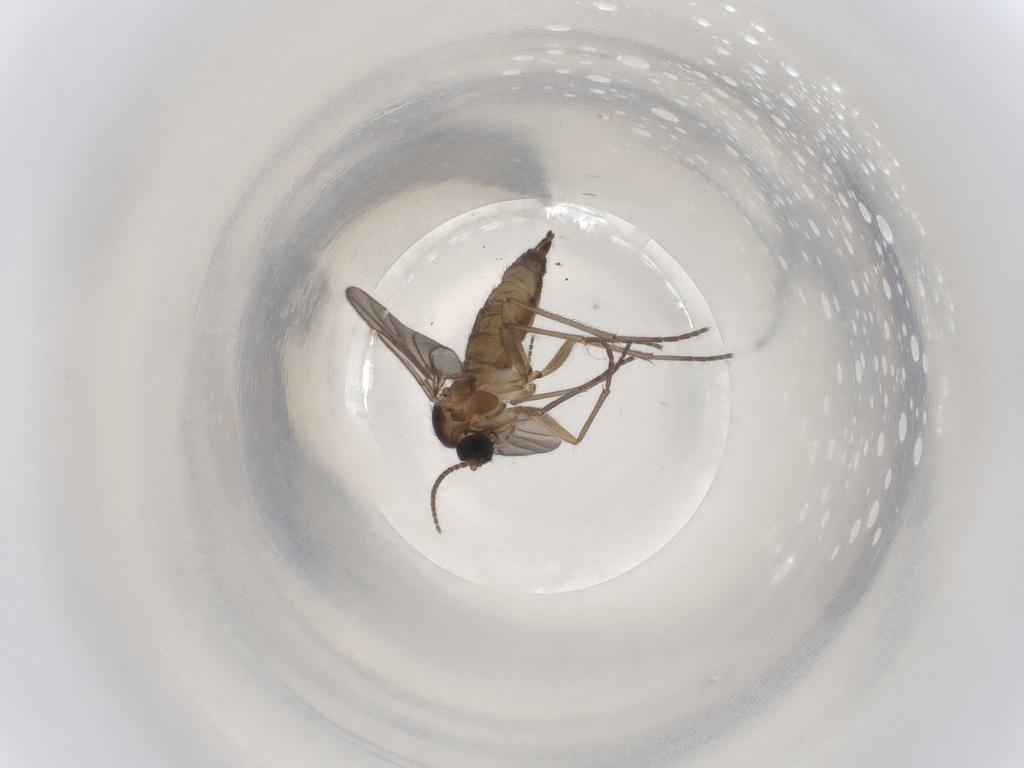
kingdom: Animalia
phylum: Arthropoda
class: Insecta
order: Diptera
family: Sciaridae
